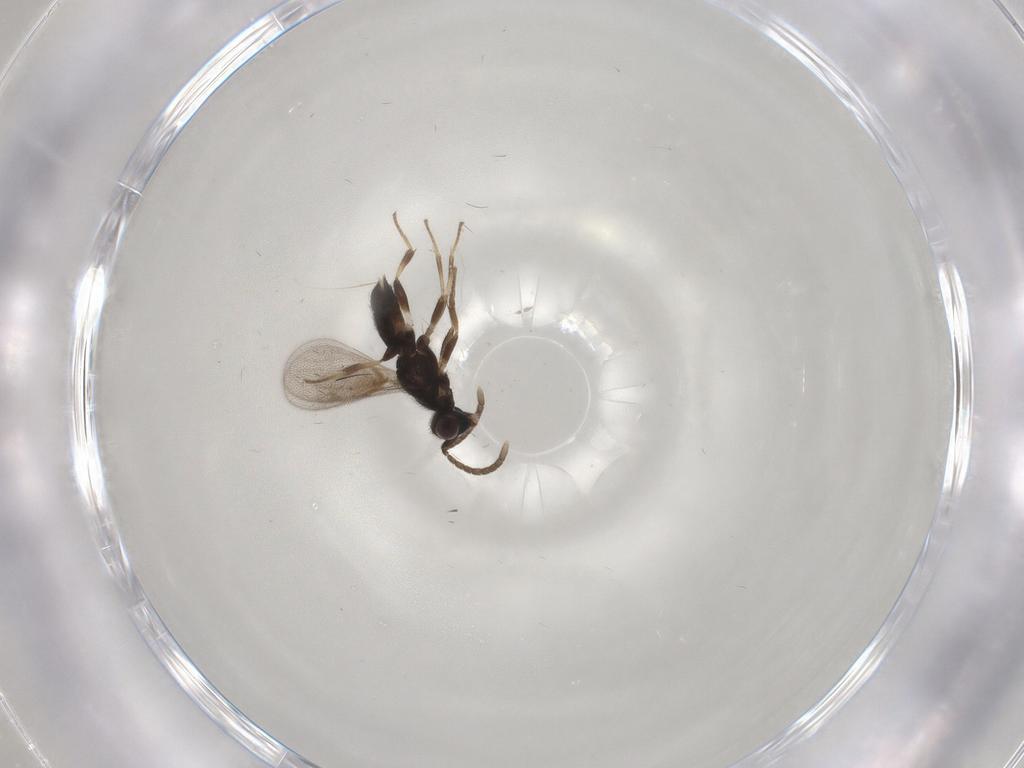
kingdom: Animalia
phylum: Arthropoda
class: Insecta
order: Hymenoptera
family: Eupelmidae
